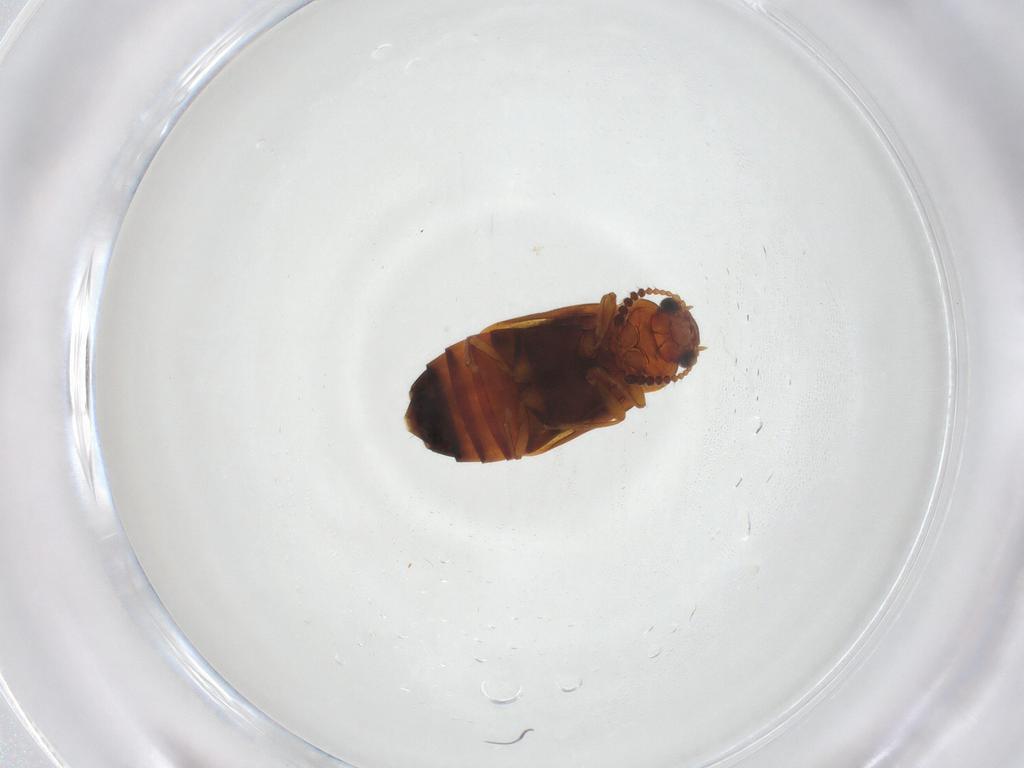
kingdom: Animalia
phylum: Arthropoda
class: Insecta
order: Coleoptera
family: Staphylinidae
